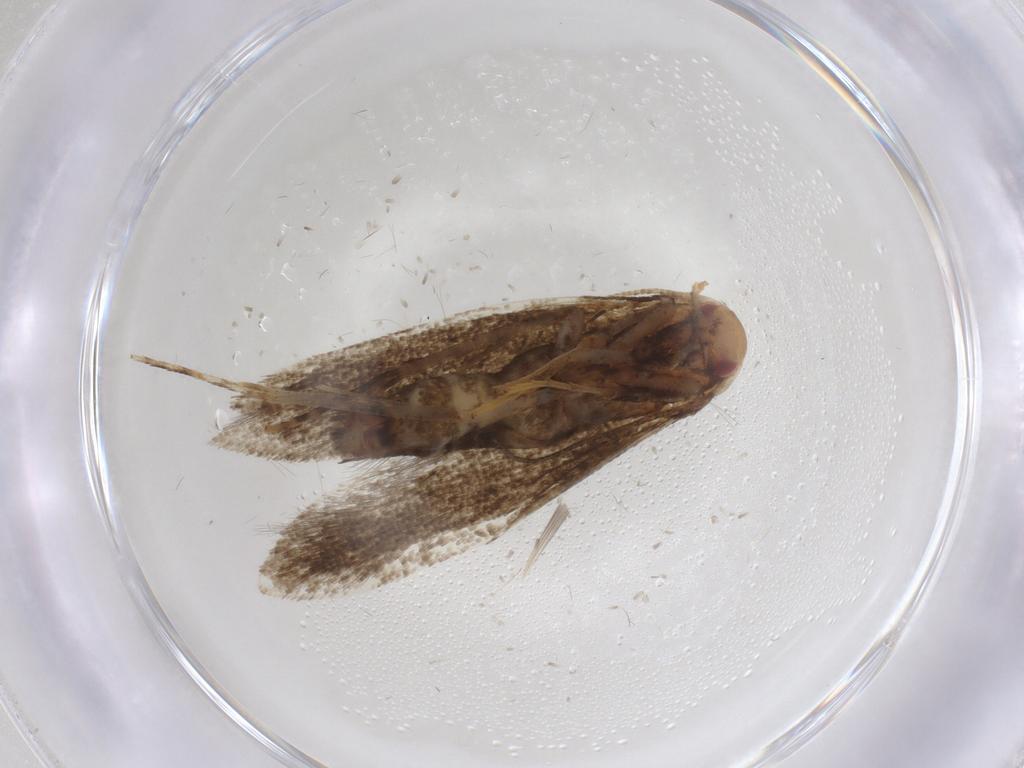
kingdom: Animalia
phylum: Arthropoda
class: Insecta
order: Lepidoptera
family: Erebidae
